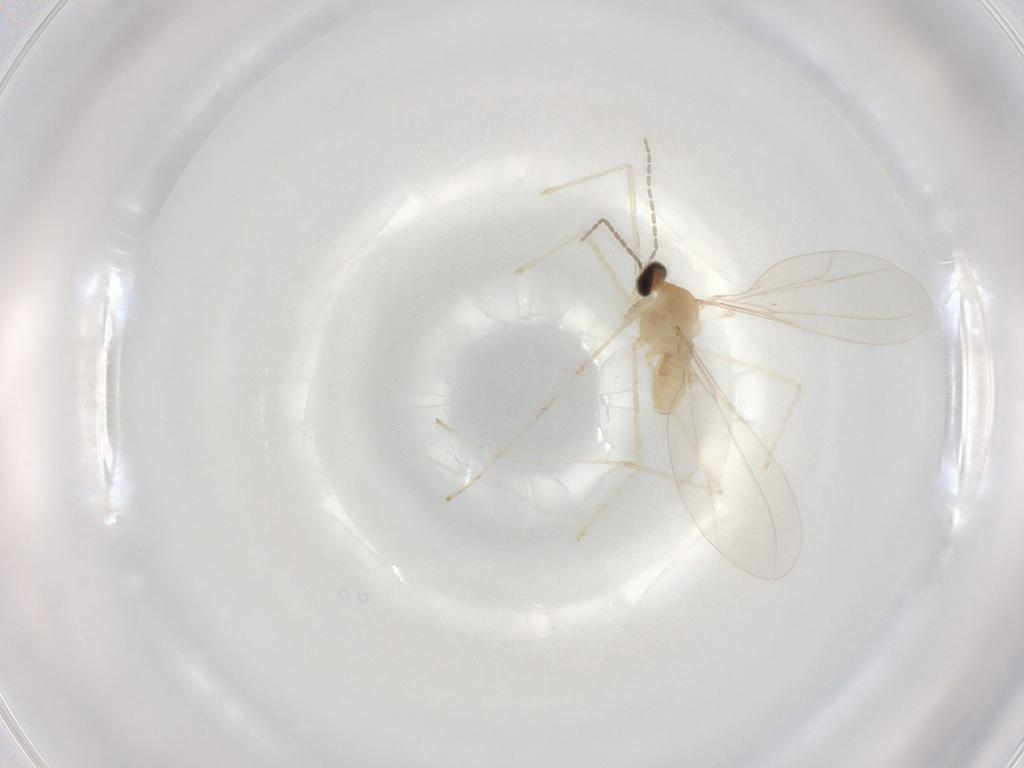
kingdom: Animalia
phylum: Arthropoda
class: Insecta
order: Diptera
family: Cecidomyiidae
